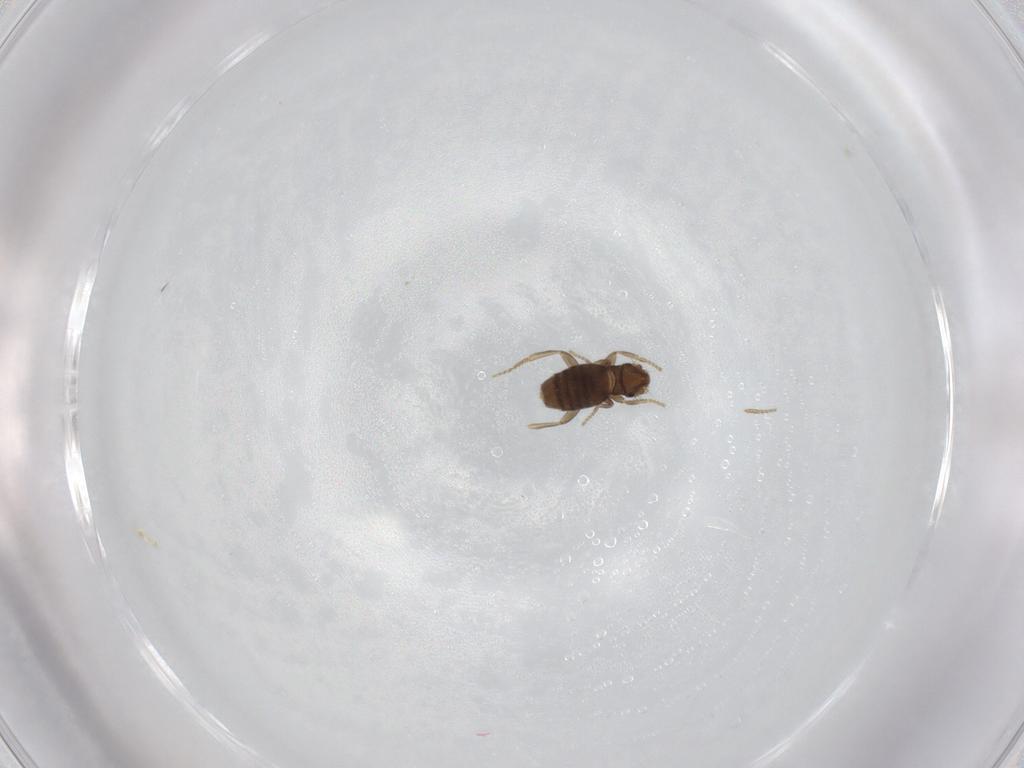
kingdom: Animalia
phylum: Arthropoda
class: Insecta
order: Diptera
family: Phoridae
